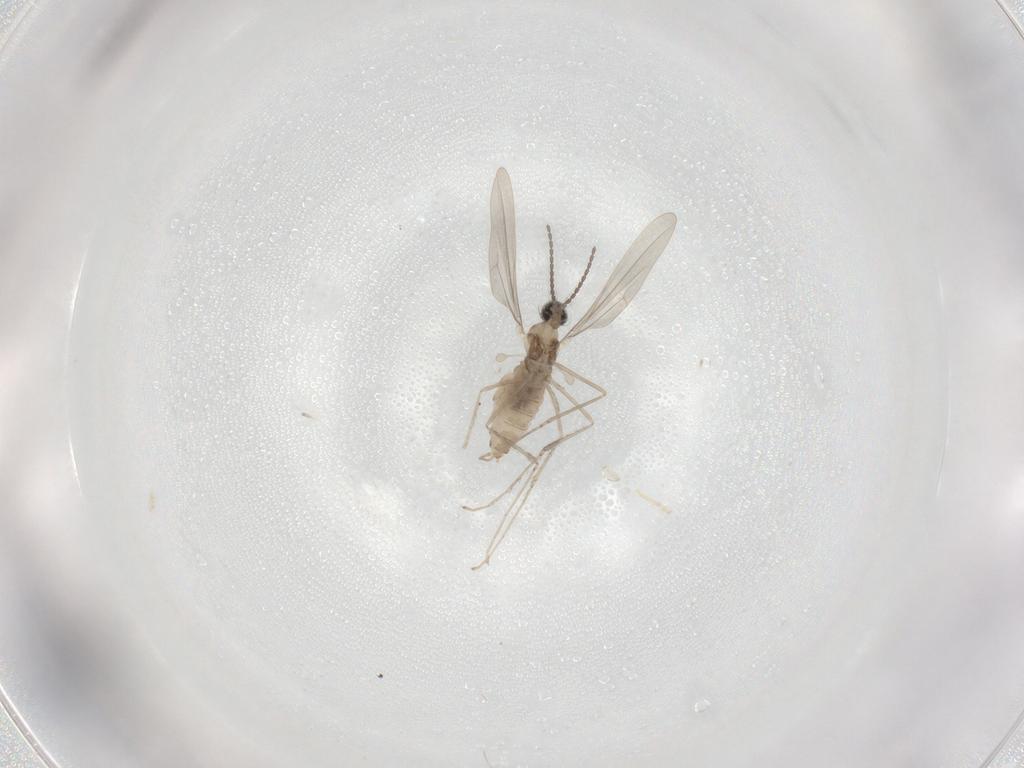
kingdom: Animalia
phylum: Arthropoda
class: Insecta
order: Diptera
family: Cecidomyiidae
